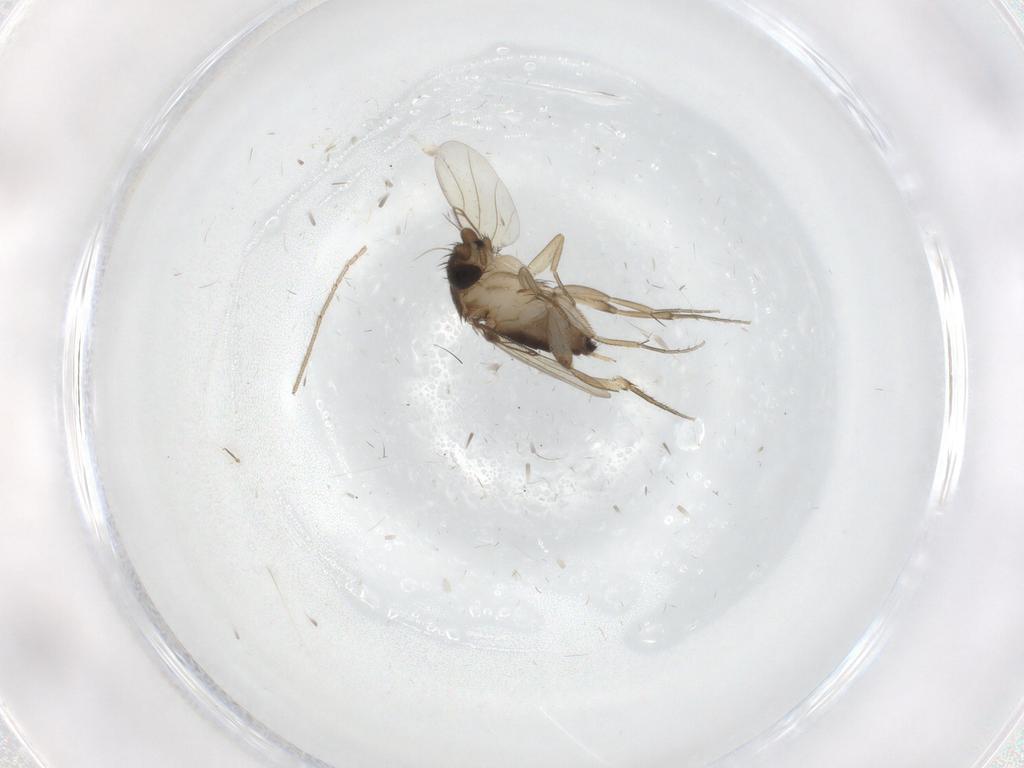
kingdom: Animalia
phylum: Arthropoda
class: Insecta
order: Diptera
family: Phoridae
